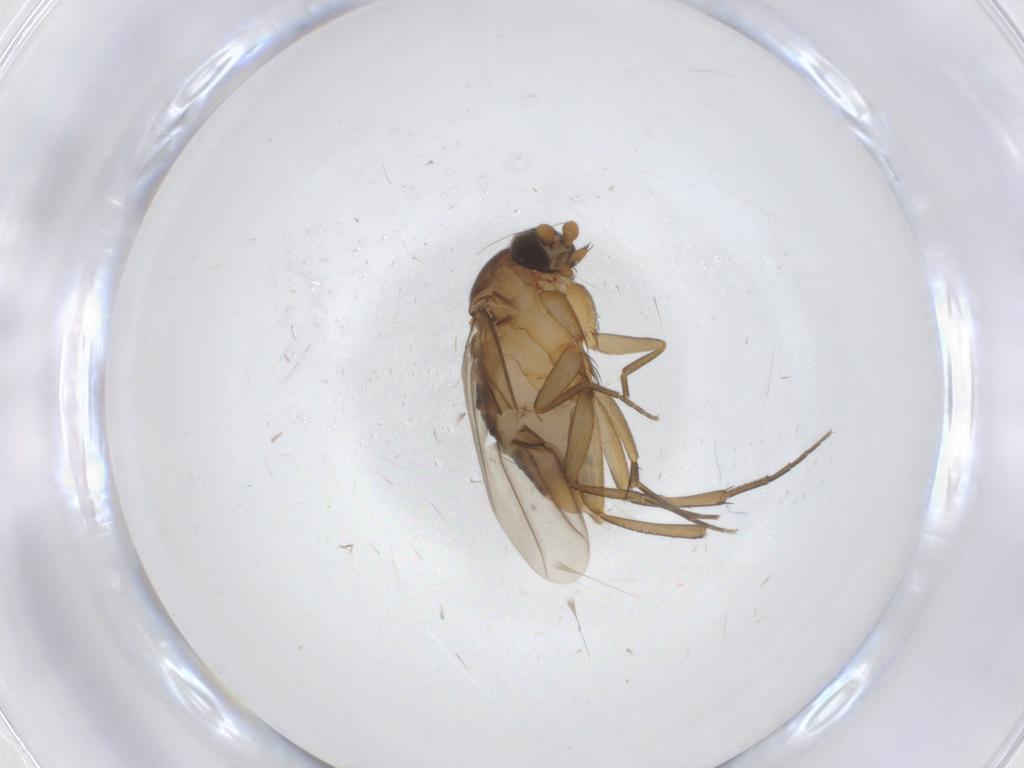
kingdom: Animalia
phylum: Arthropoda
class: Insecta
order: Diptera
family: Phoridae
